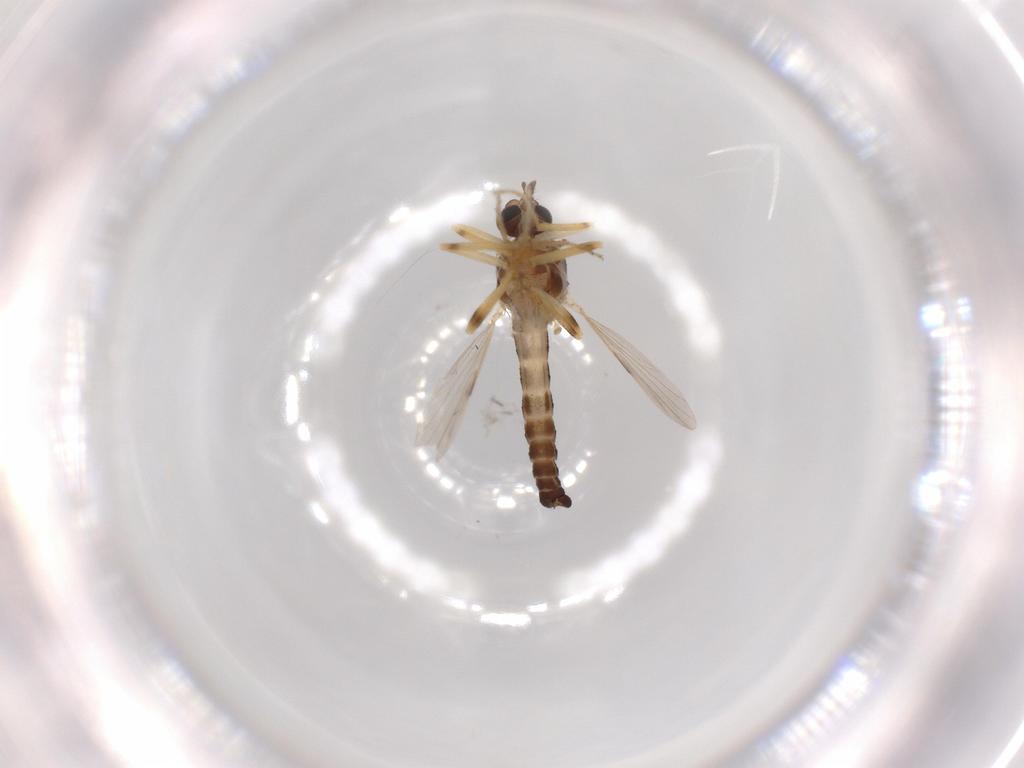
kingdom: Animalia
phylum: Arthropoda
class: Insecta
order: Diptera
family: Ceratopogonidae
